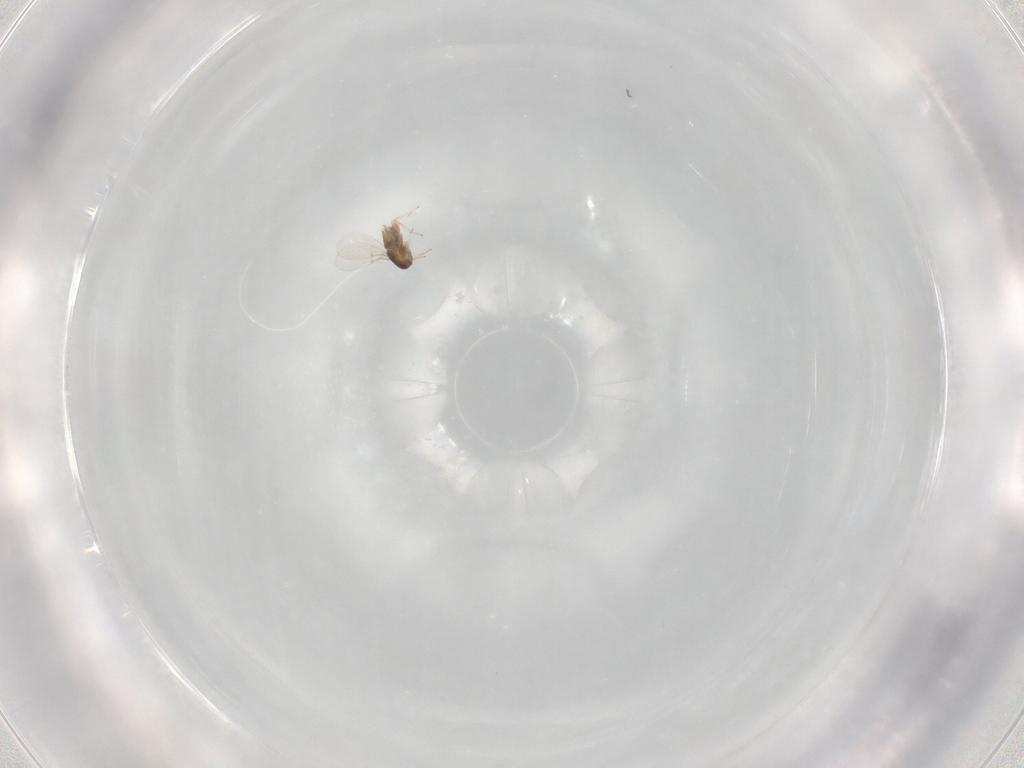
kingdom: Animalia
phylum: Arthropoda
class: Insecta
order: Hymenoptera
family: Encyrtidae
